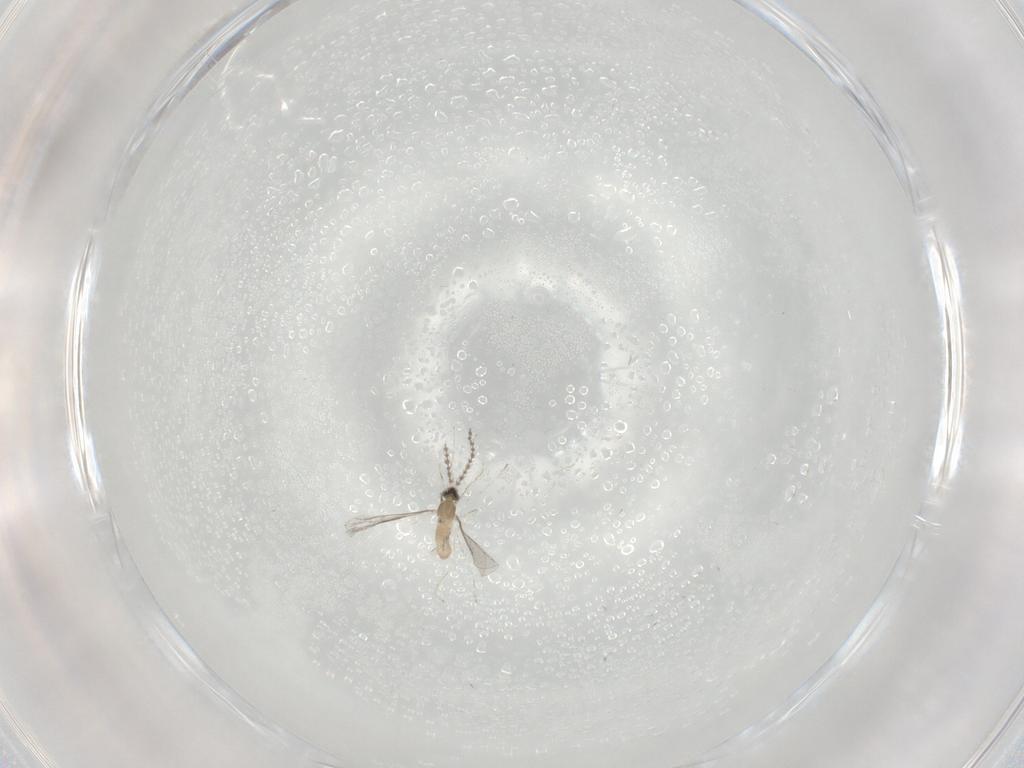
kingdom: Animalia
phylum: Arthropoda
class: Insecta
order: Diptera
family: Cecidomyiidae
